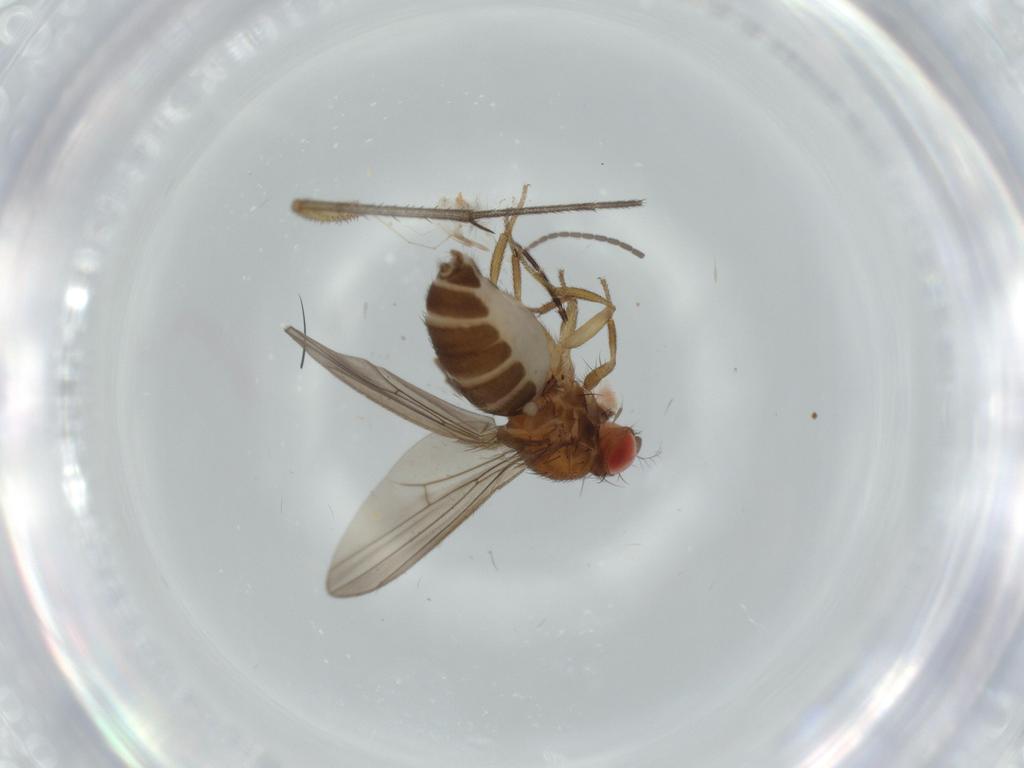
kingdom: Animalia
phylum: Arthropoda
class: Insecta
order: Diptera
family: Drosophilidae
